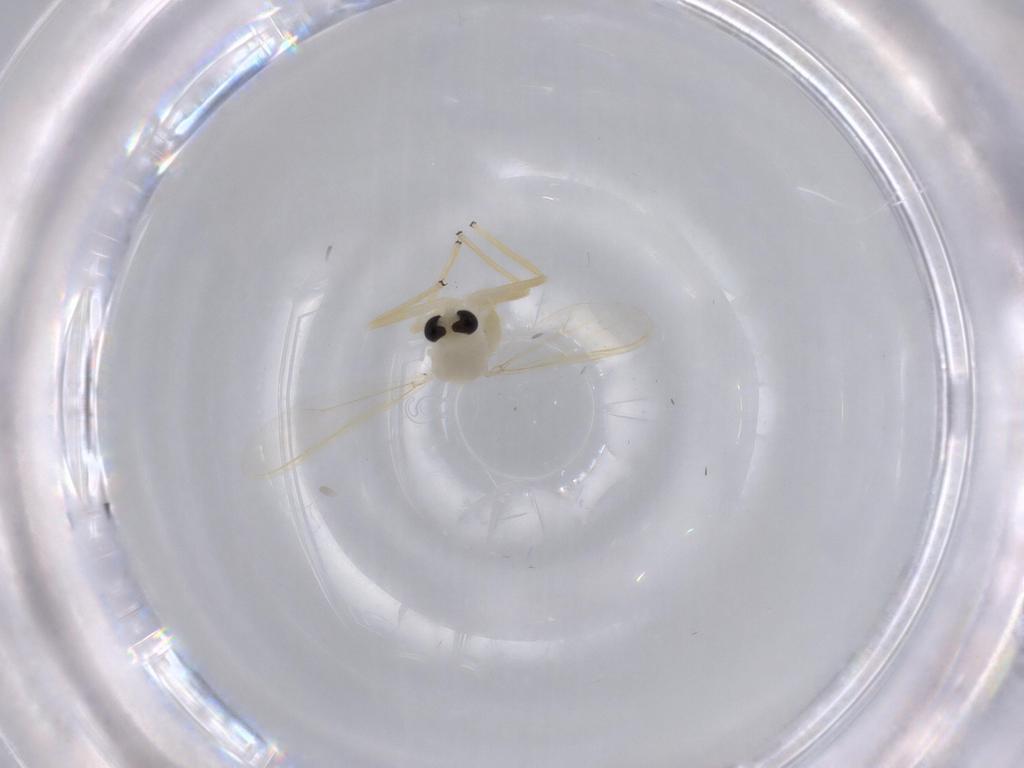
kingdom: Animalia
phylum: Arthropoda
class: Insecta
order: Diptera
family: Chironomidae
